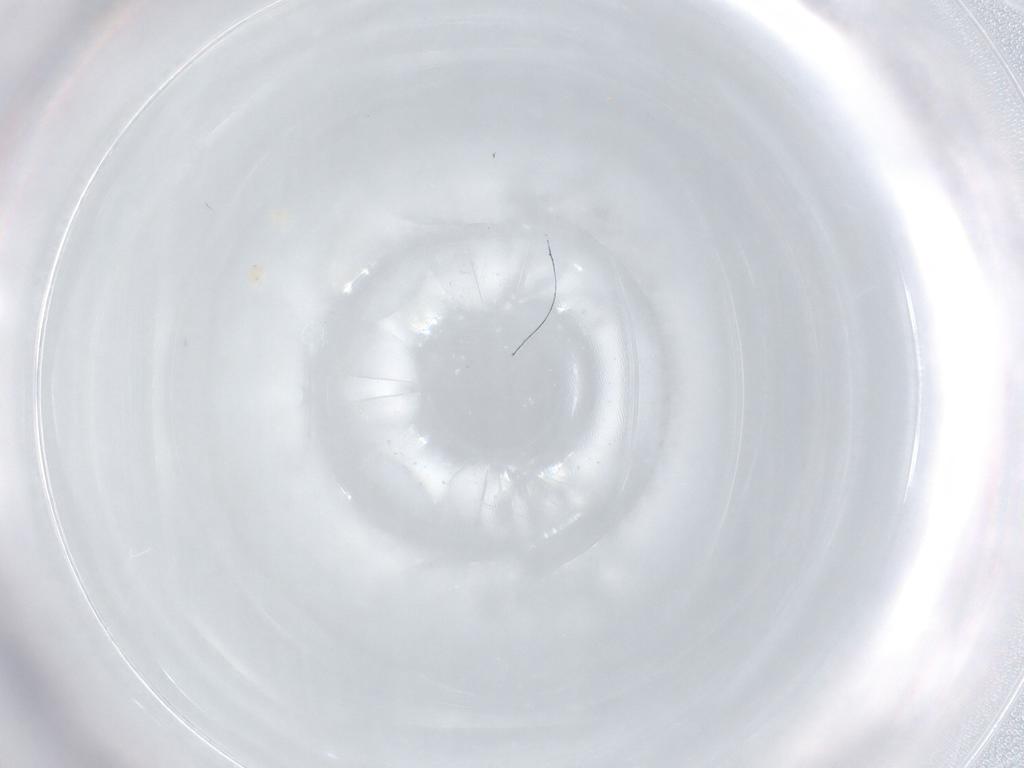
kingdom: Animalia
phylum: Arthropoda
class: Arachnida
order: Trombidiformes
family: Eupodidae
